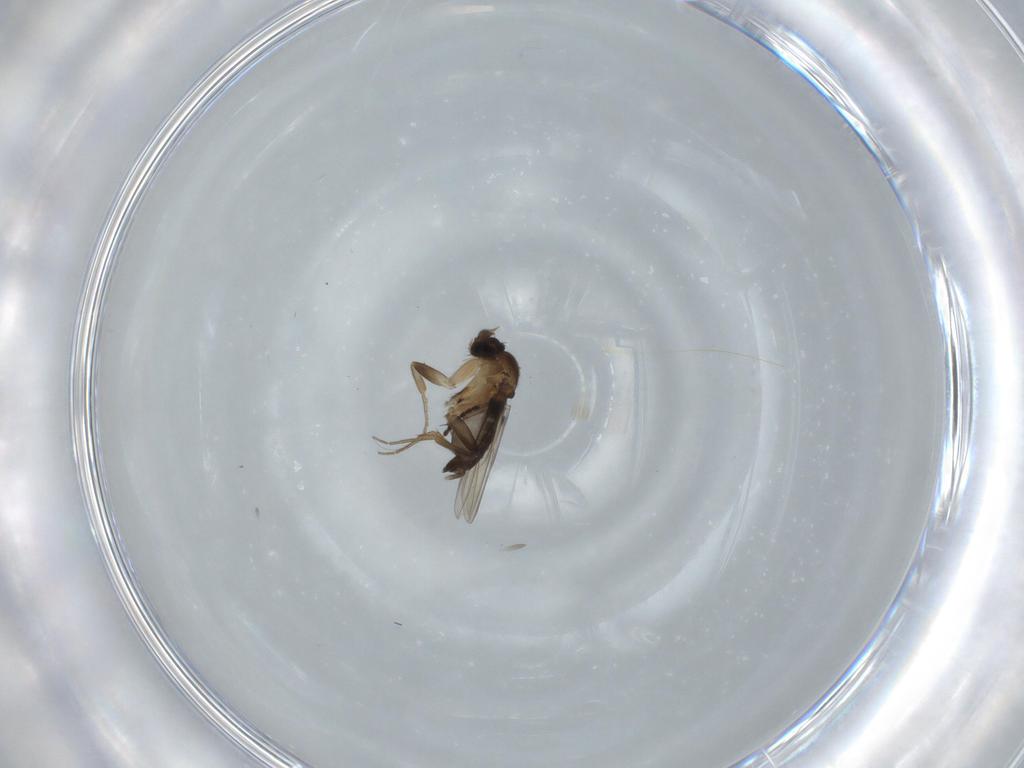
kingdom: Animalia
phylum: Arthropoda
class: Insecta
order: Diptera
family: Phoridae
